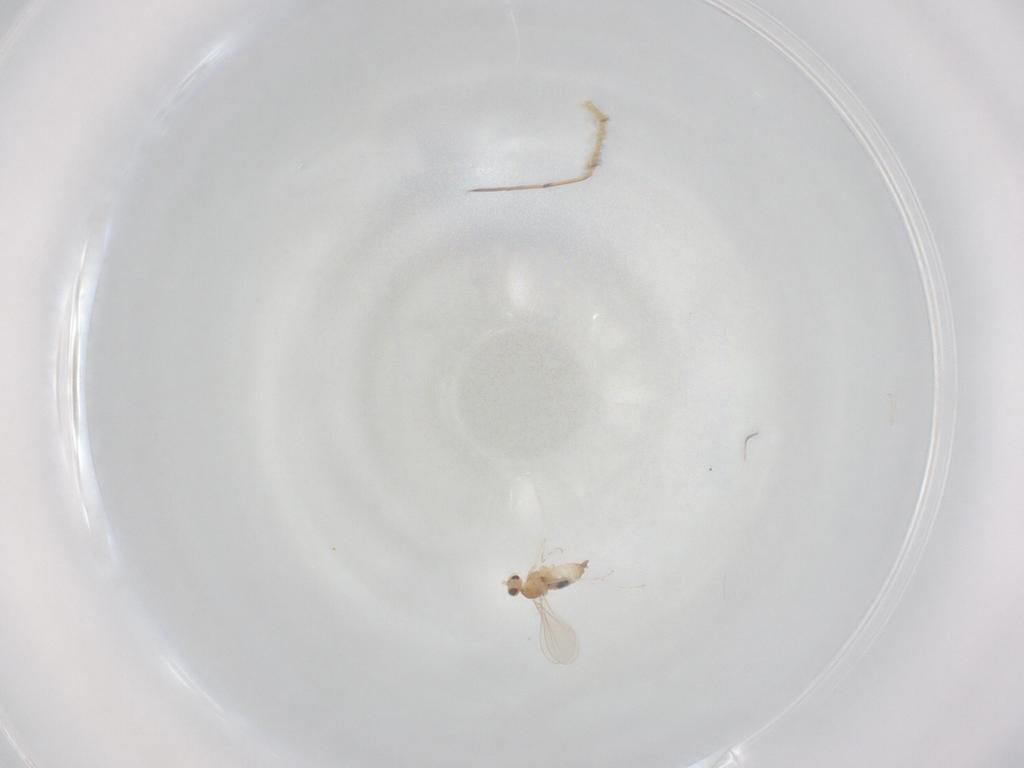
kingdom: Animalia
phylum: Arthropoda
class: Insecta
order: Diptera
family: Cecidomyiidae
